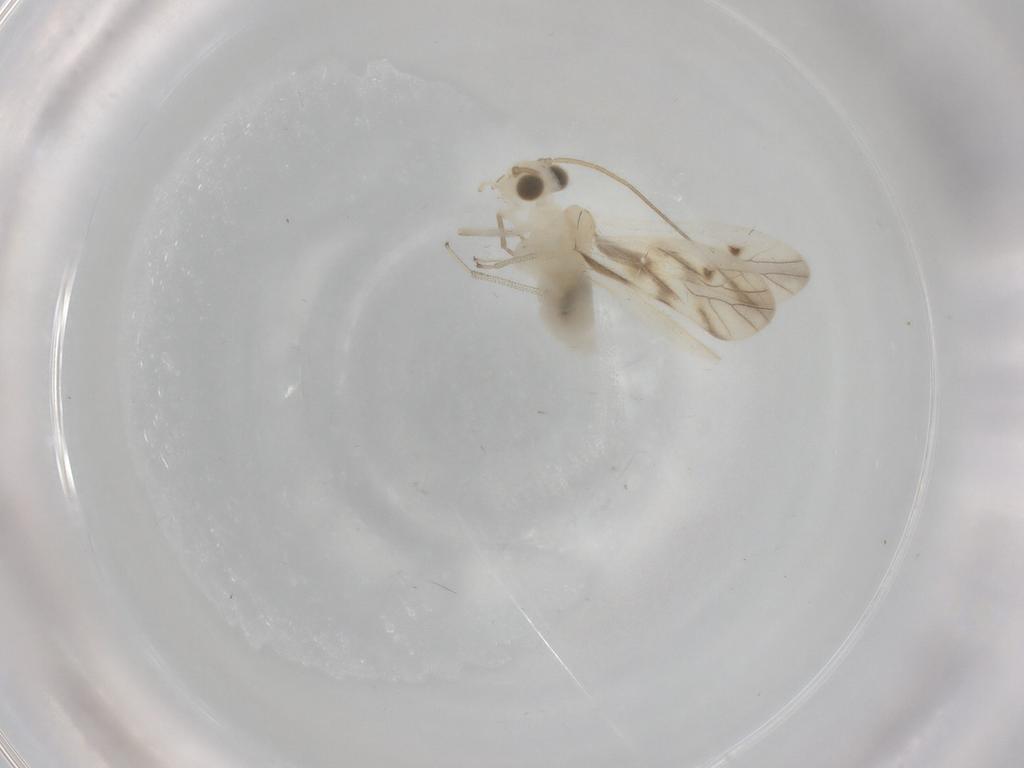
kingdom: Animalia
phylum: Arthropoda
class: Insecta
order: Psocodea
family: Caeciliusidae
